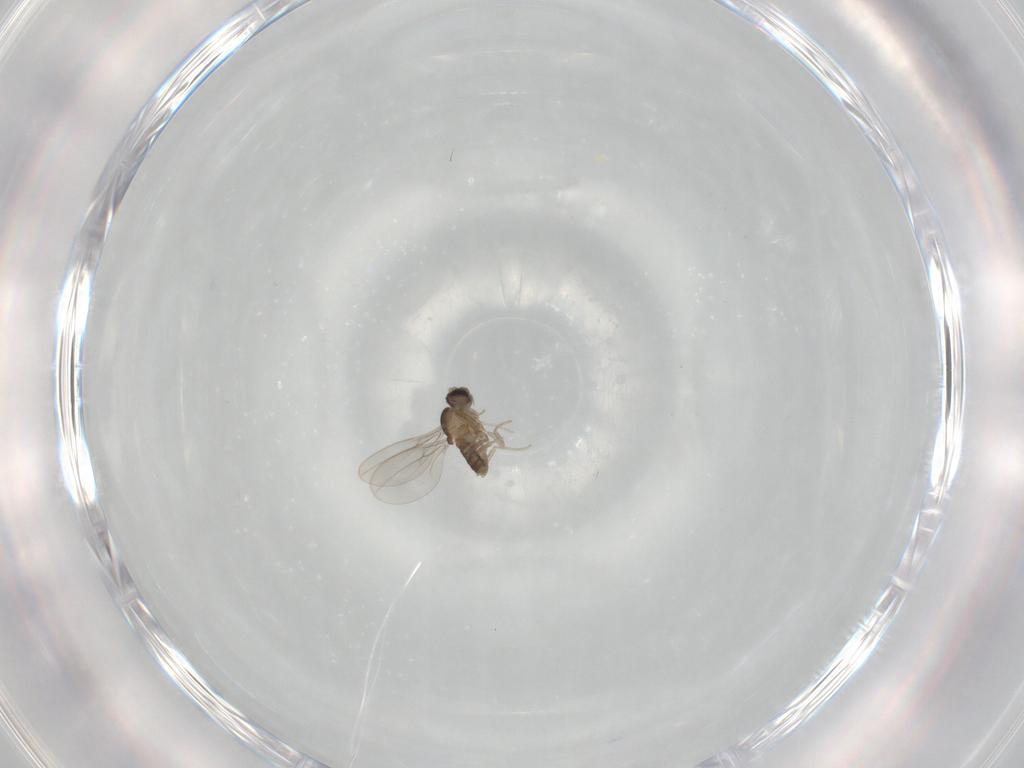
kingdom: Animalia
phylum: Arthropoda
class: Insecta
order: Diptera
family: Cecidomyiidae
